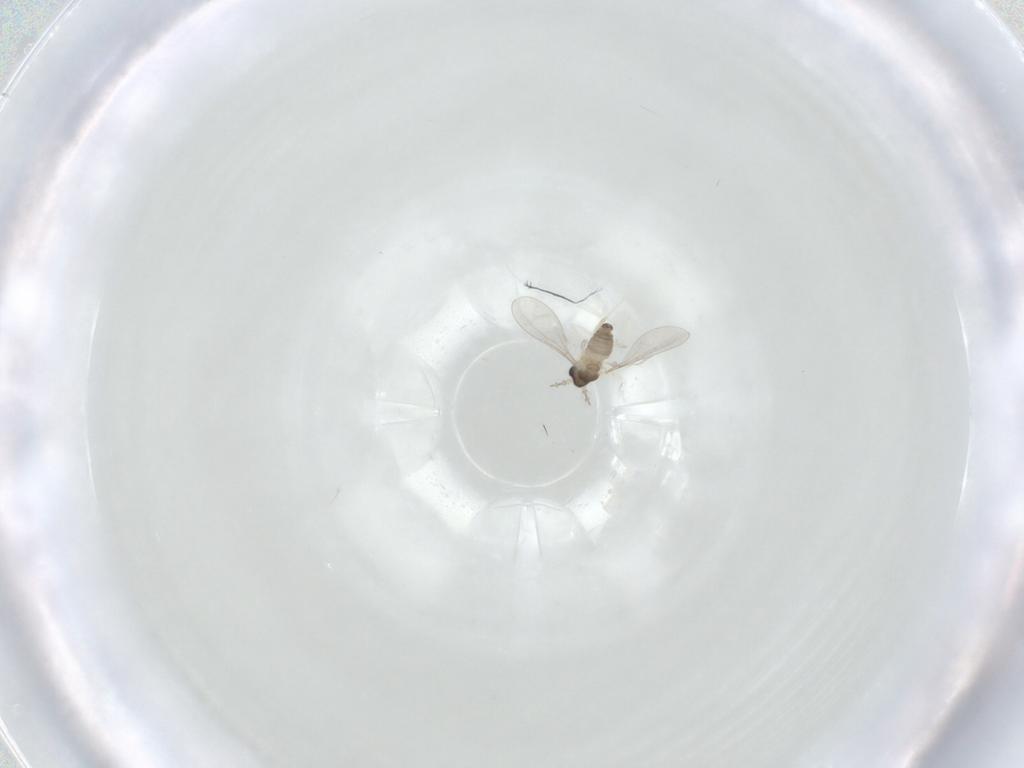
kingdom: Animalia
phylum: Arthropoda
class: Insecta
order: Diptera
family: Cecidomyiidae
